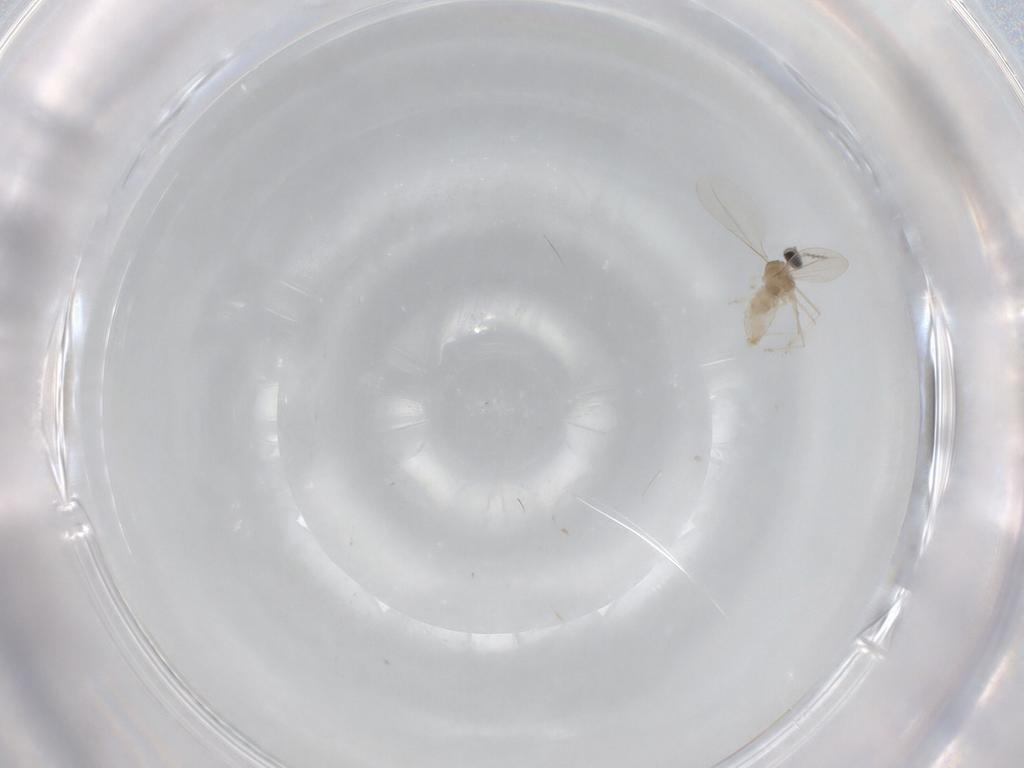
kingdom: Animalia
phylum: Arthropoda
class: Insecta
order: Diptera
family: Cecidomyiidae
